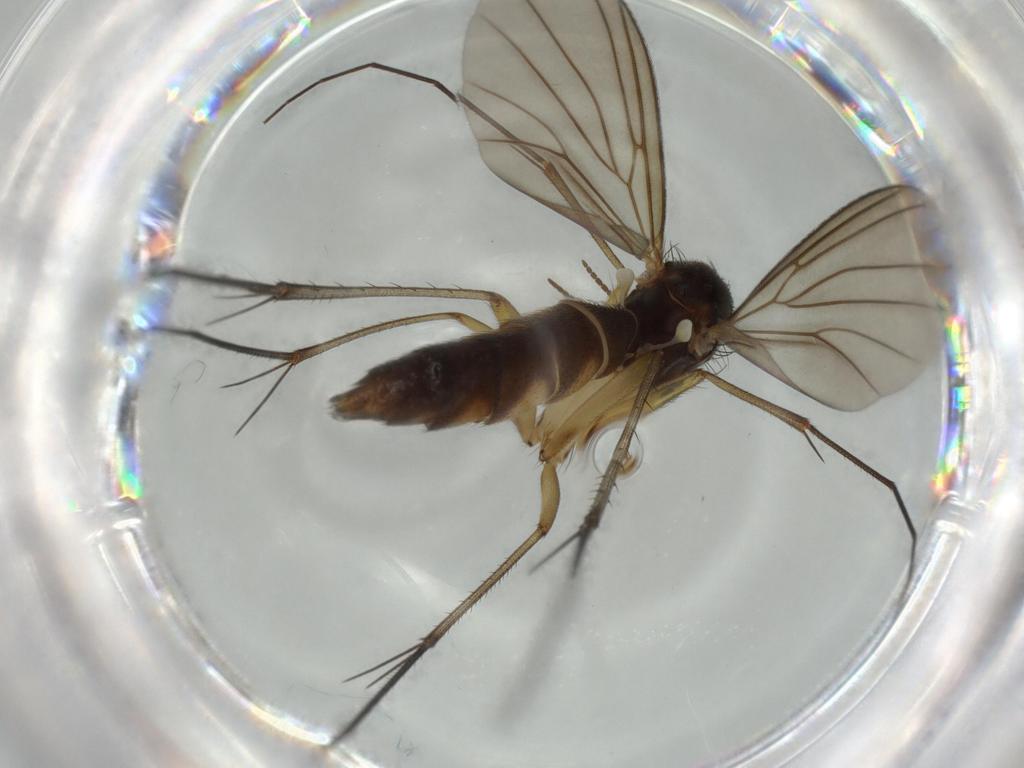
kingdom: Animalia
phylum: Arthropoda
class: Insecta
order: Diptera
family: Mycetophilidae
